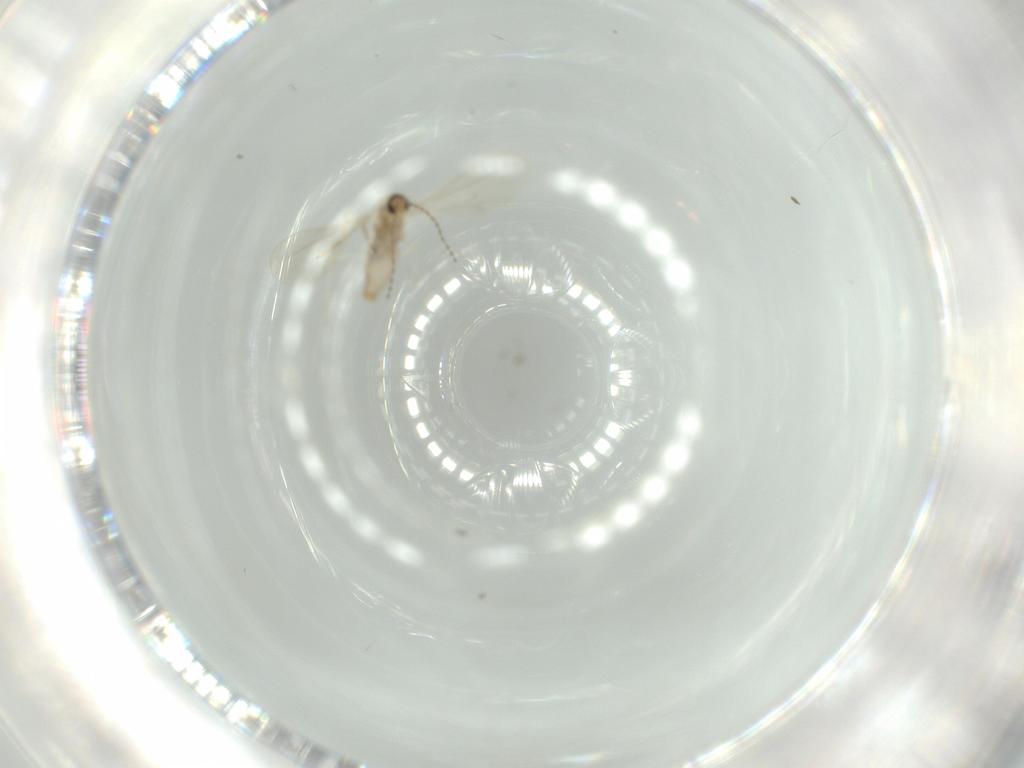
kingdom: Animalia
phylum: Arthropoda
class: Insecta
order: Diptera
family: Cecidomyiidae
